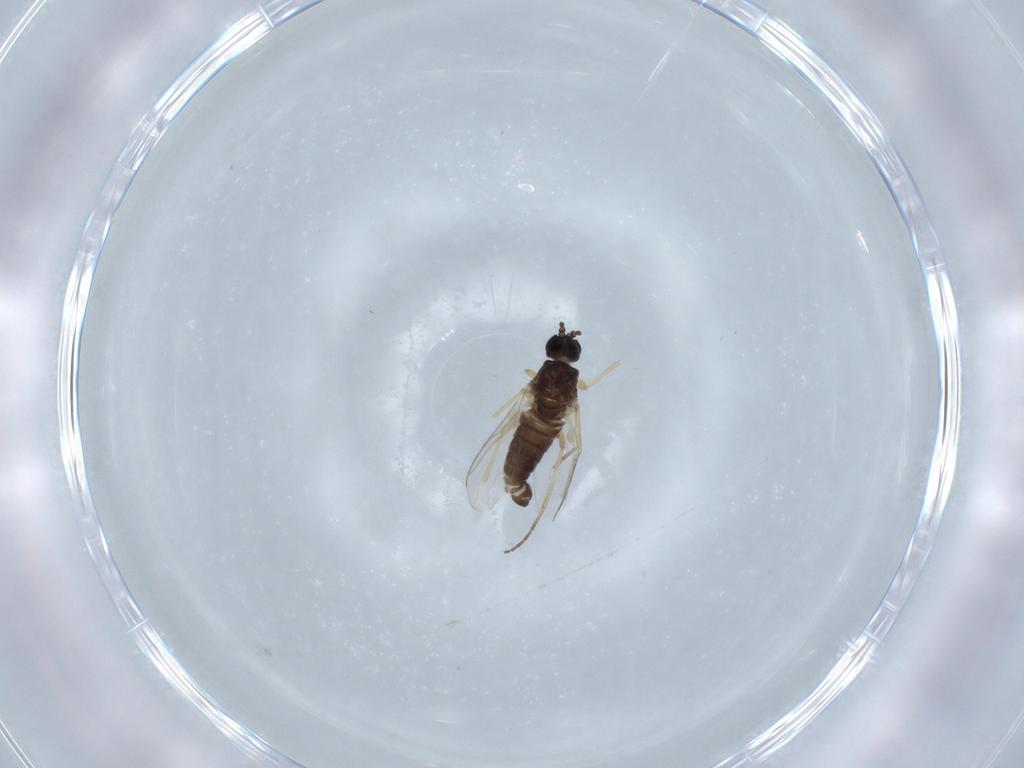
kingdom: Animalia
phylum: Arthropoda
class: Insecta
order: Diptera
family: Sciaridae
